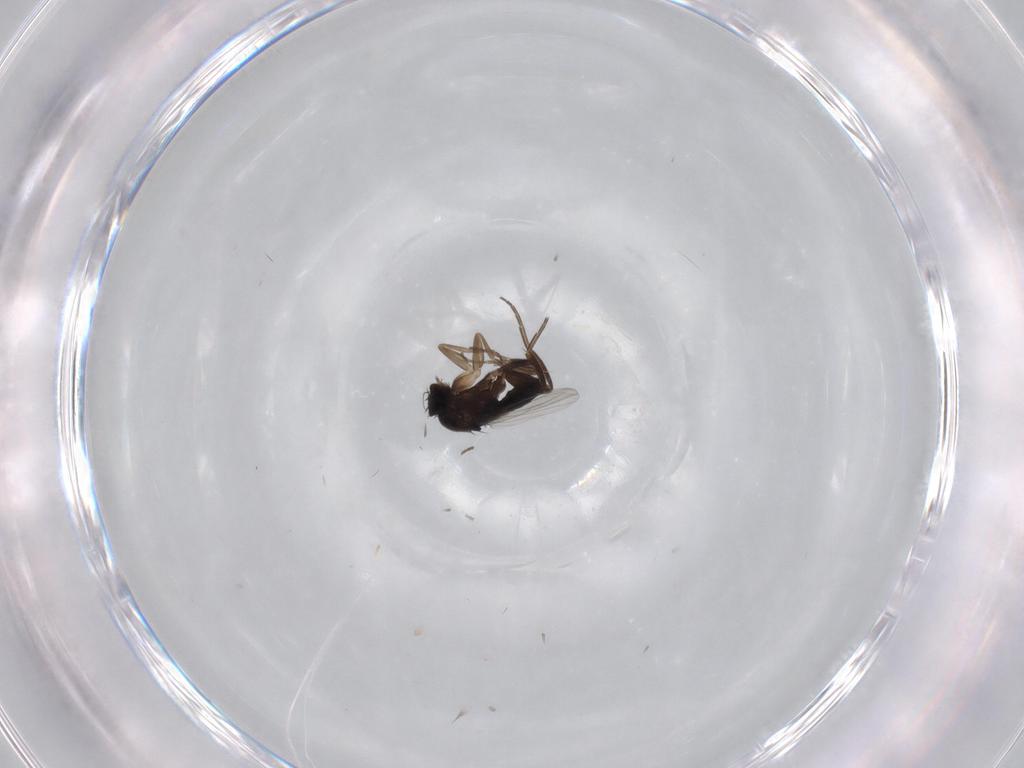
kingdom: Animalia
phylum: Arthropoda
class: Insecta
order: Diptera
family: Phoridae
